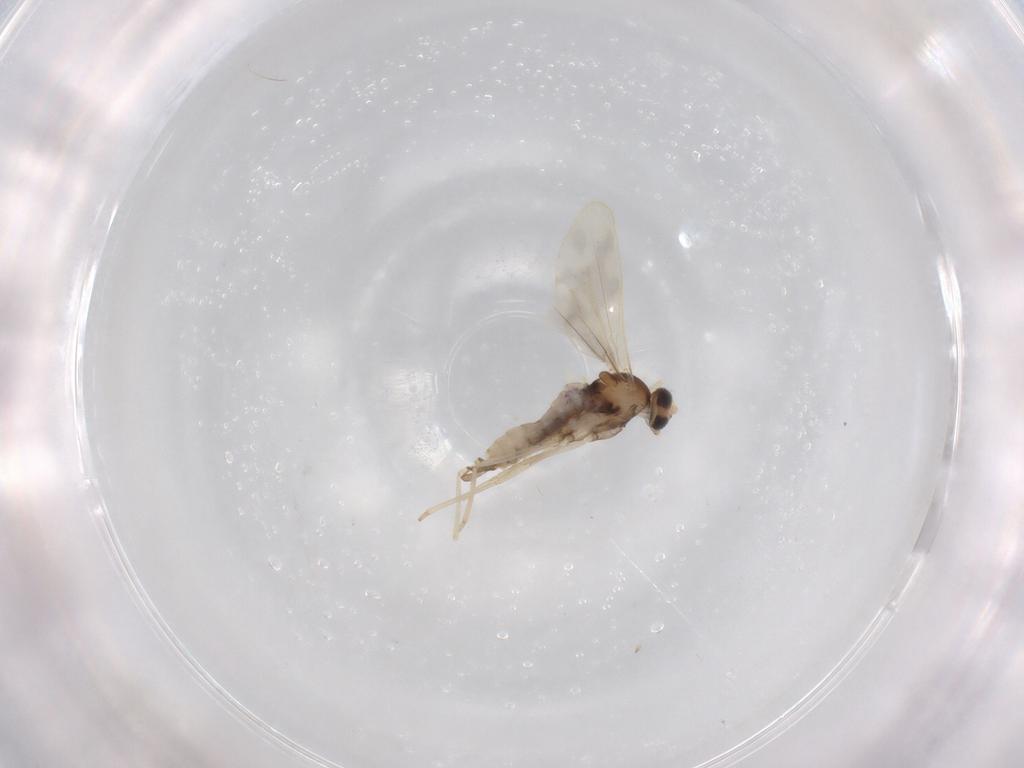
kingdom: Animalia
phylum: Arthropoda
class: Insecta
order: Diptera
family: Cecidomyiidae
